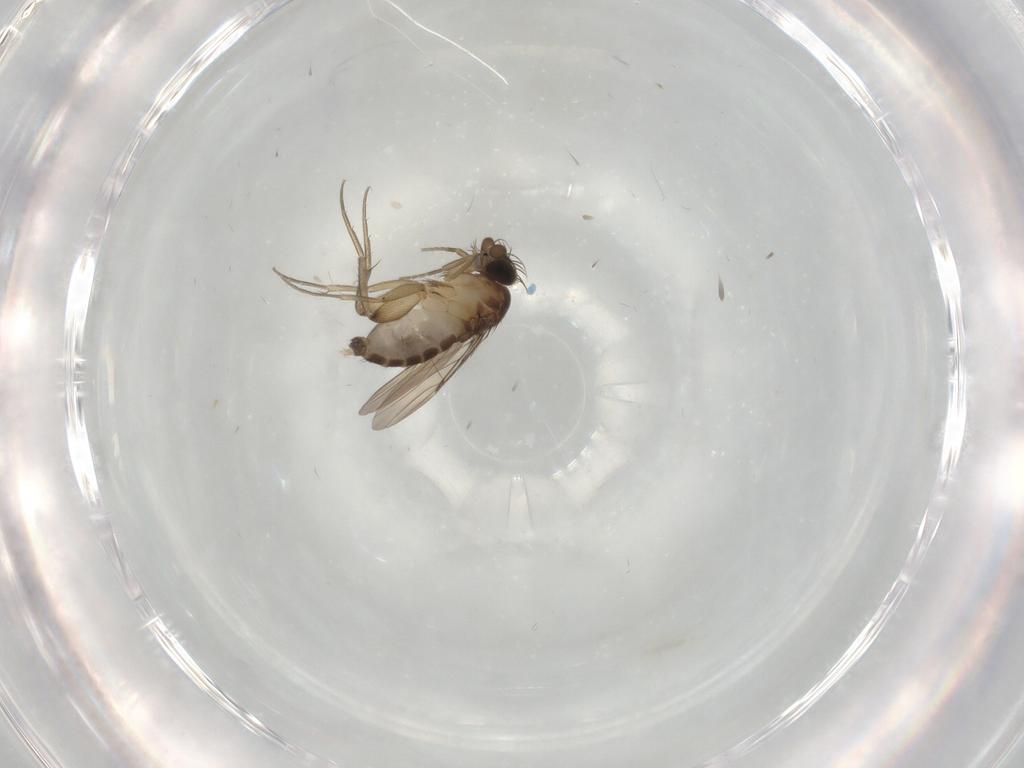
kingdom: Animalia
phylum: Arthropoda
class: Insecta
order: Diptera
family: Phoridae
